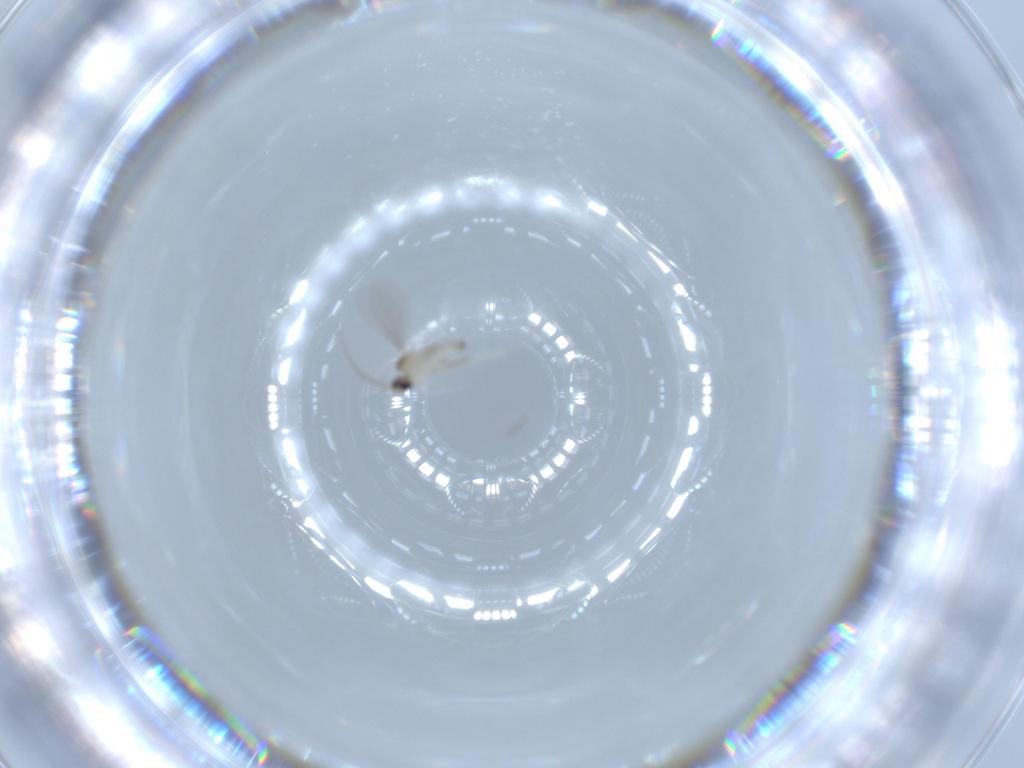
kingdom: Animalia
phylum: Arthropoda
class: Insecta
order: Diptera
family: Cecidomyiidae
